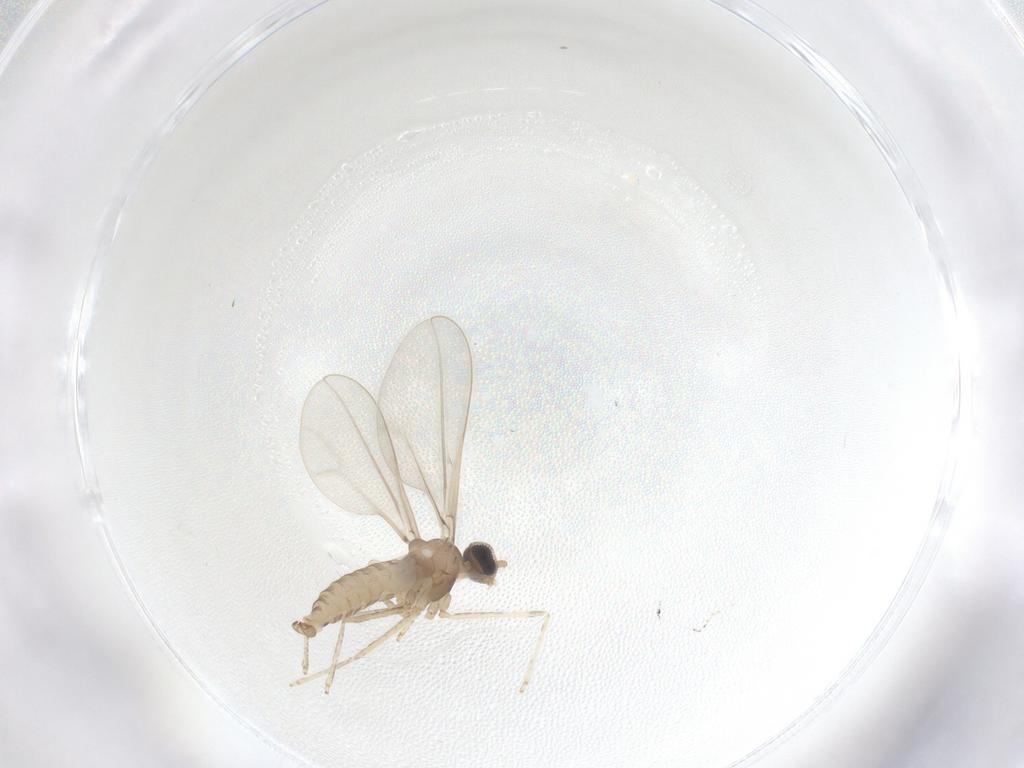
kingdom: Animalia
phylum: Arthropoda
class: Insecta
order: Diptera
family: Cecidomyiidae
